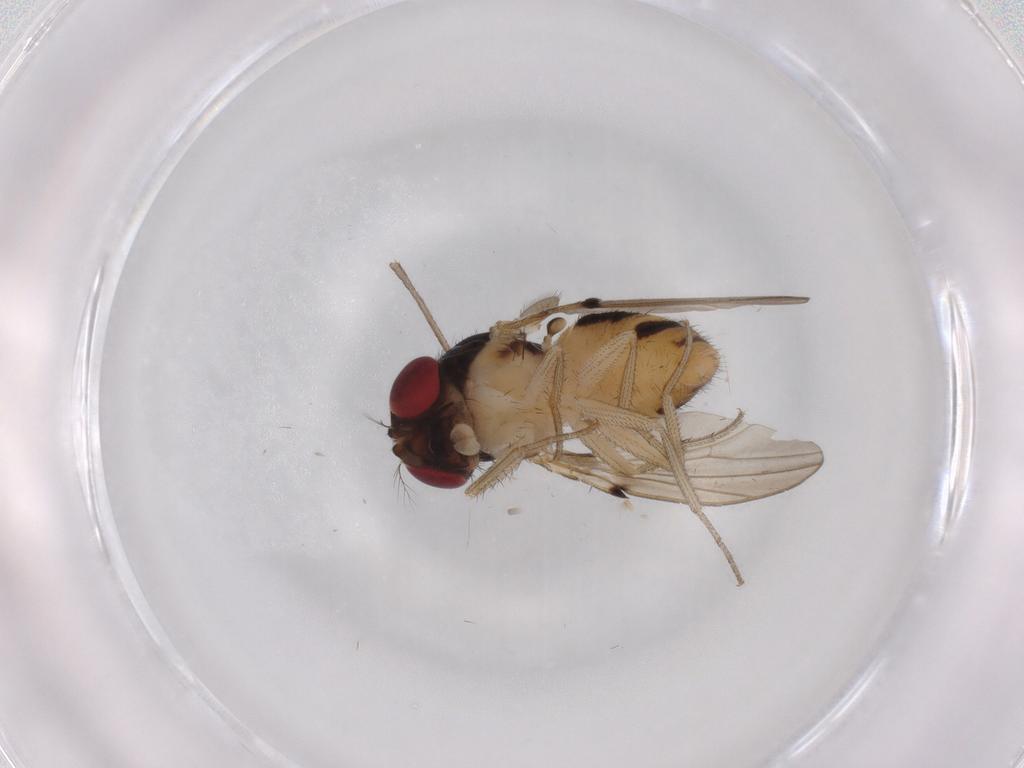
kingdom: Animalia
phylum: Arthropoda
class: Insecta
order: Diptera
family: Drosophilidae
